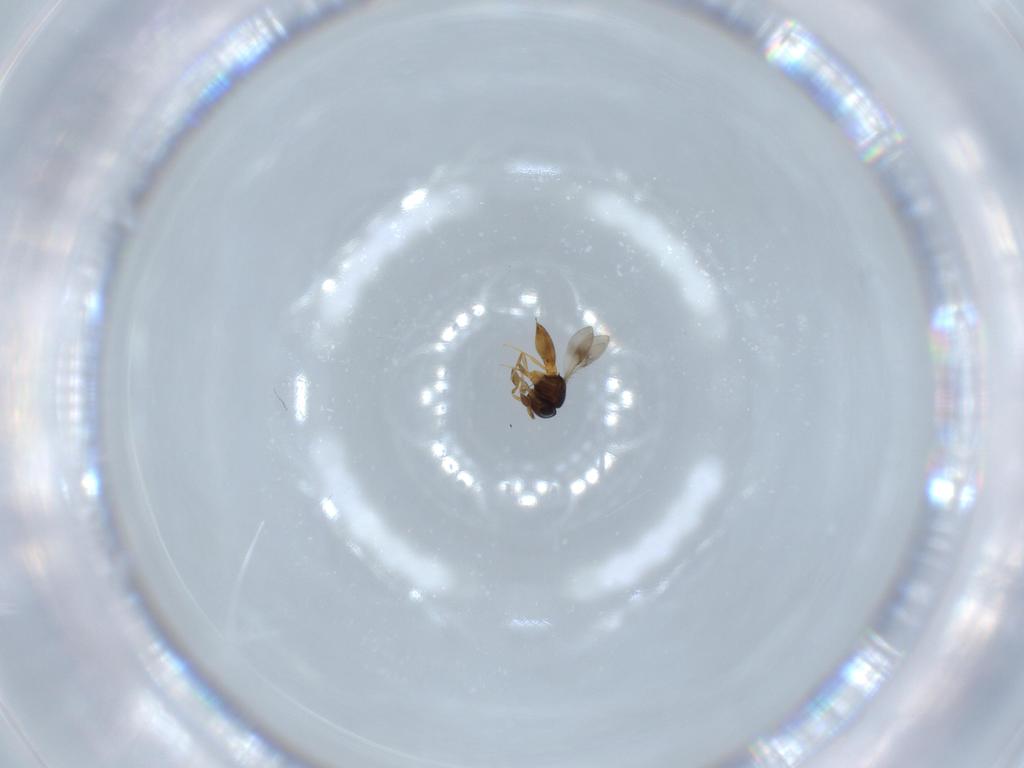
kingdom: Animalia
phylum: Arthropoda
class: Insecta
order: Hymenoptera
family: Scelionidae
